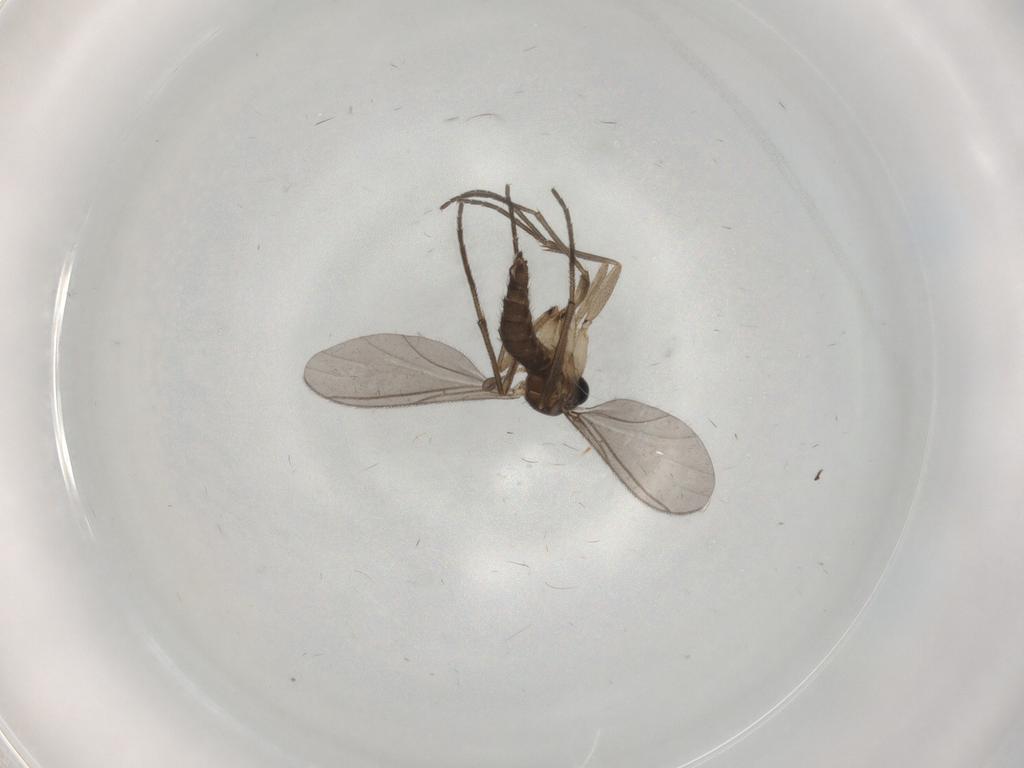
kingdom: Animalia
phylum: Arthropoda
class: Insecta
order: Diptera
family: Sciaridae
